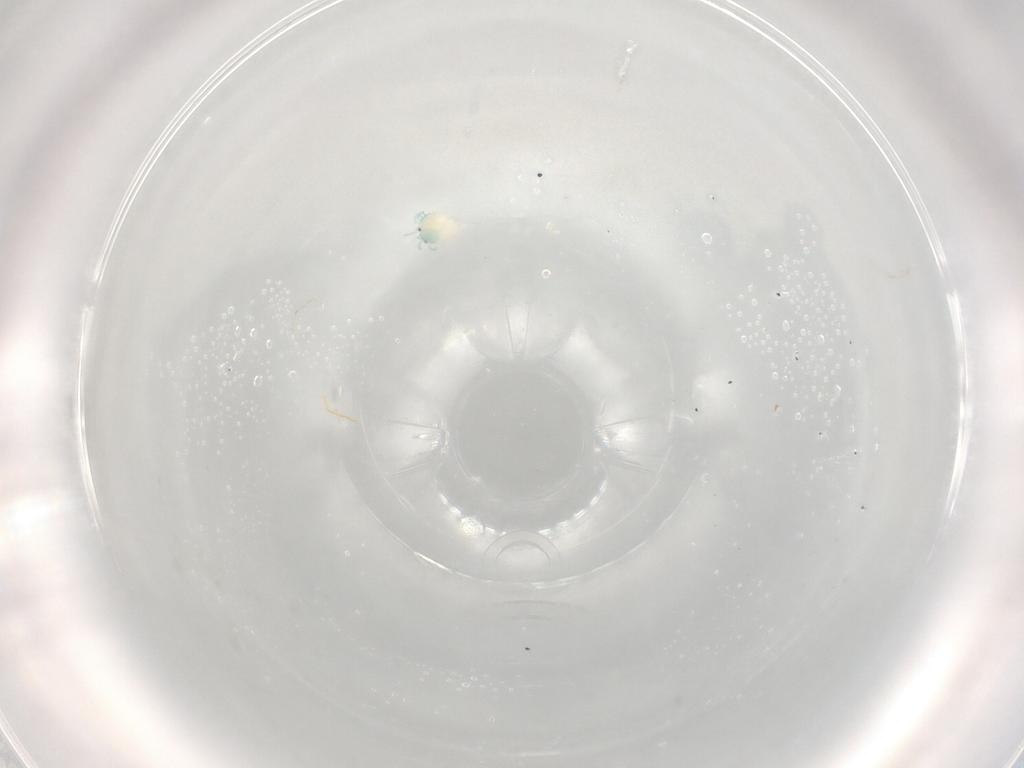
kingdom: Animalia
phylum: Arthropoda
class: Arachnida
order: Trombidiformes
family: Arrenuridae
